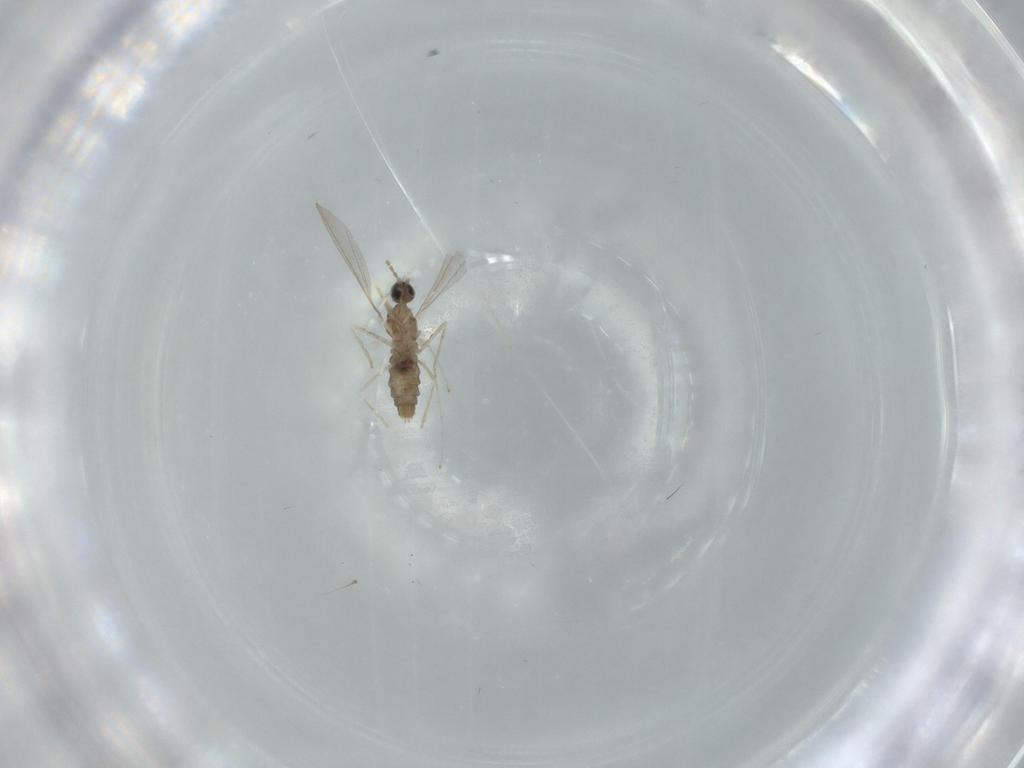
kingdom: Animalia
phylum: Arthropoda
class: Insecta
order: Diptera
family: Cecidomyiidae
